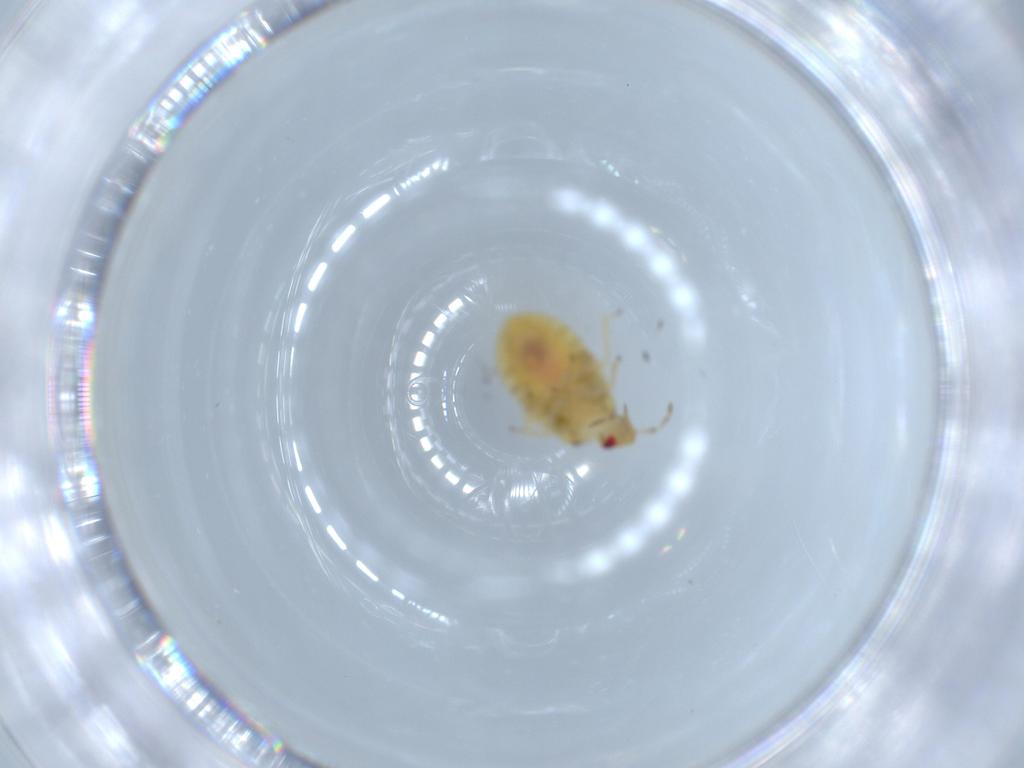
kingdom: Animalia
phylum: Arthropoda
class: Insecta
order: Hemiptera
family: Anthocoridae
